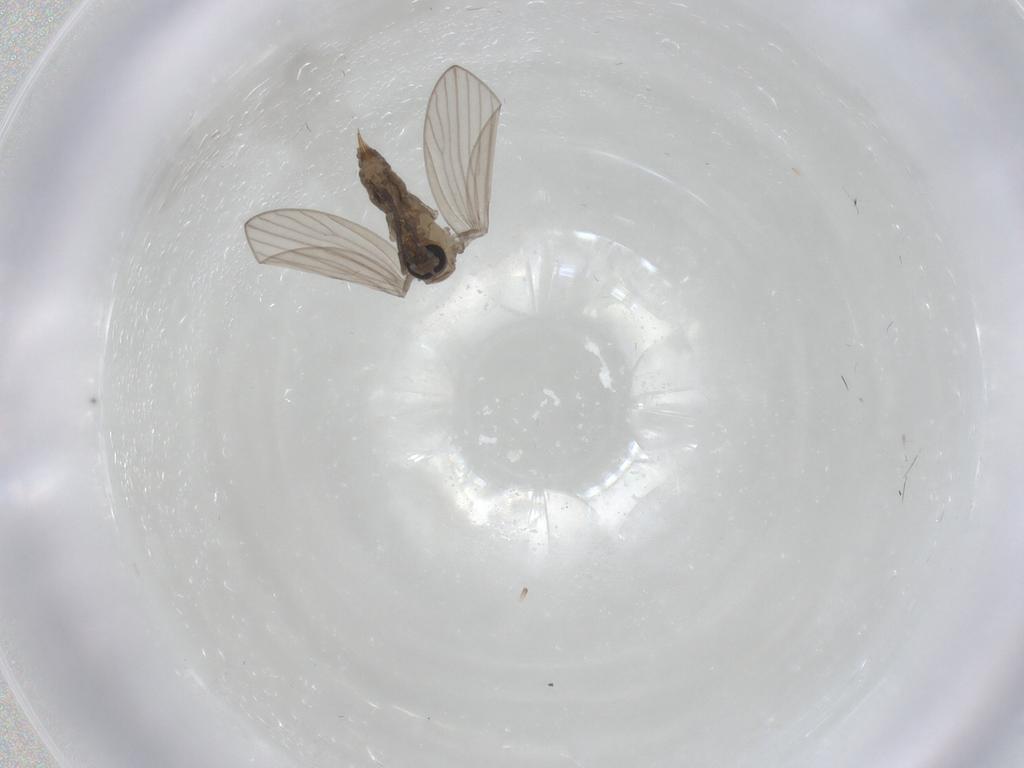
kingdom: Animalia
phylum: Arthropoda
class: Insecta
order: Diptera
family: Psychodidae
